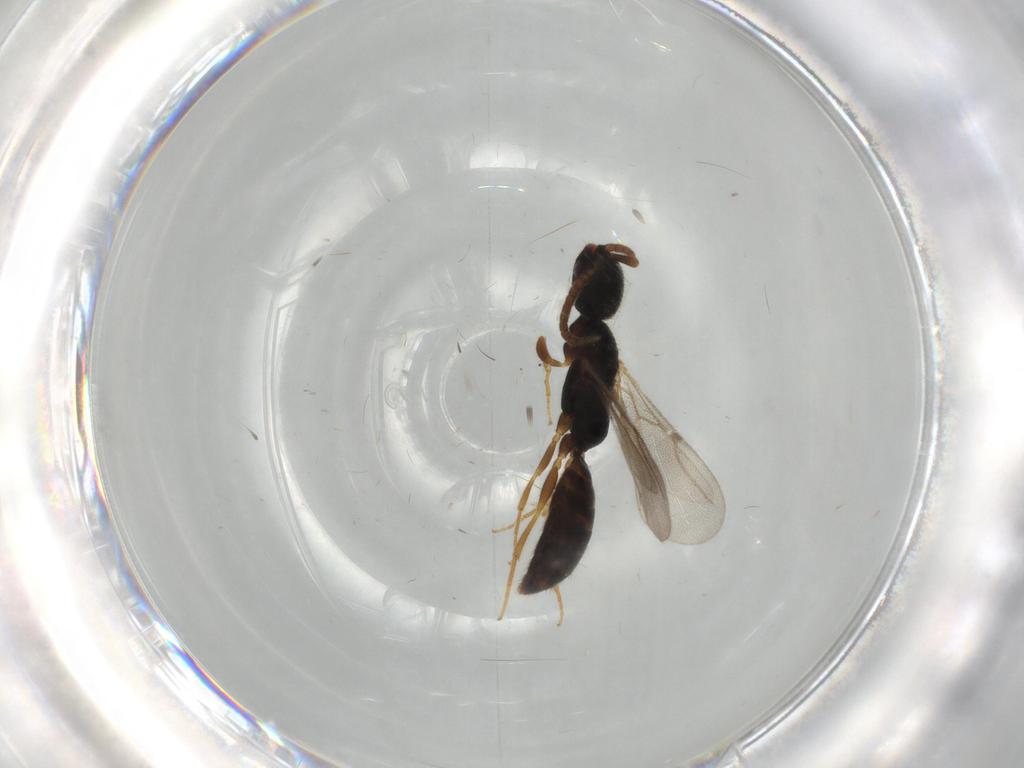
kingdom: Animalia
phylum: Arthropoda
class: Insecta
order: Hymenoptera
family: Bethylidae
